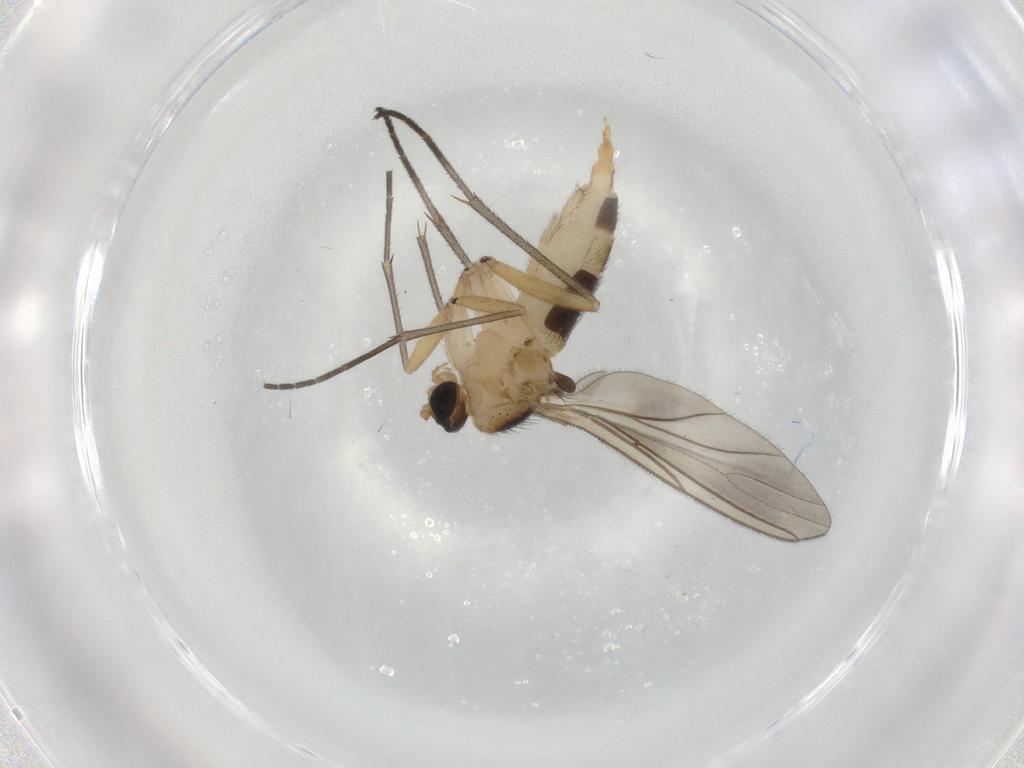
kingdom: Animalia
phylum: Arthropoda
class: Insecta
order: Diptera
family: Sciaridae
